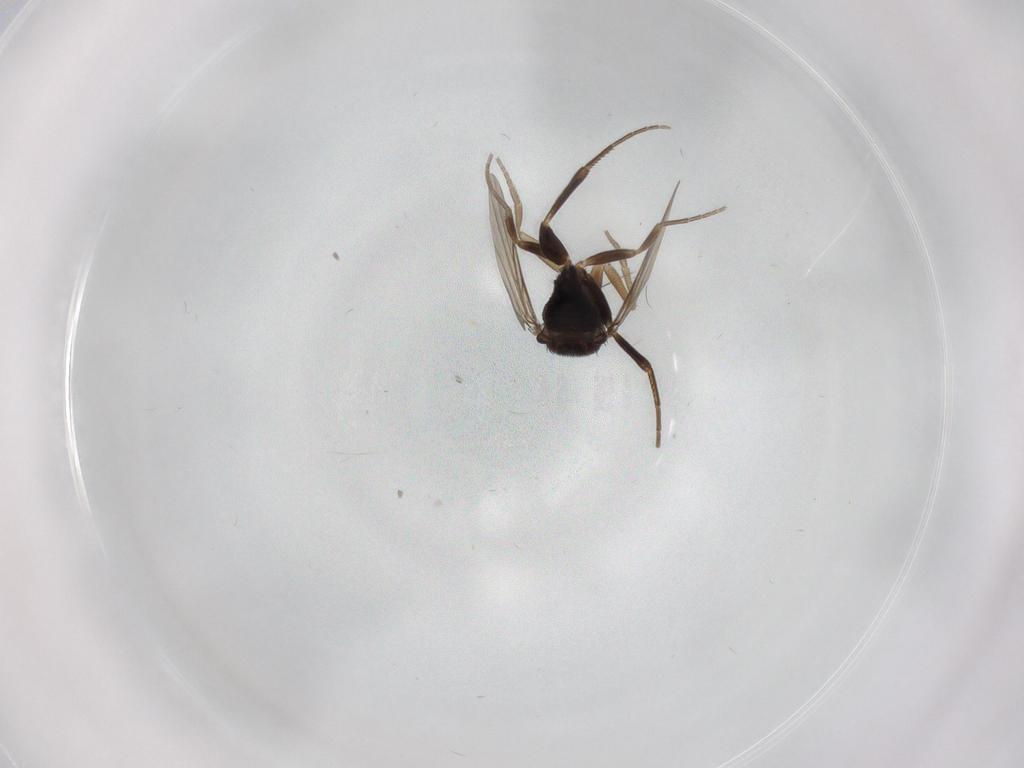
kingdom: Animalia
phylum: Arthropoda
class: Insecta
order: Diptera
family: Phoridae
